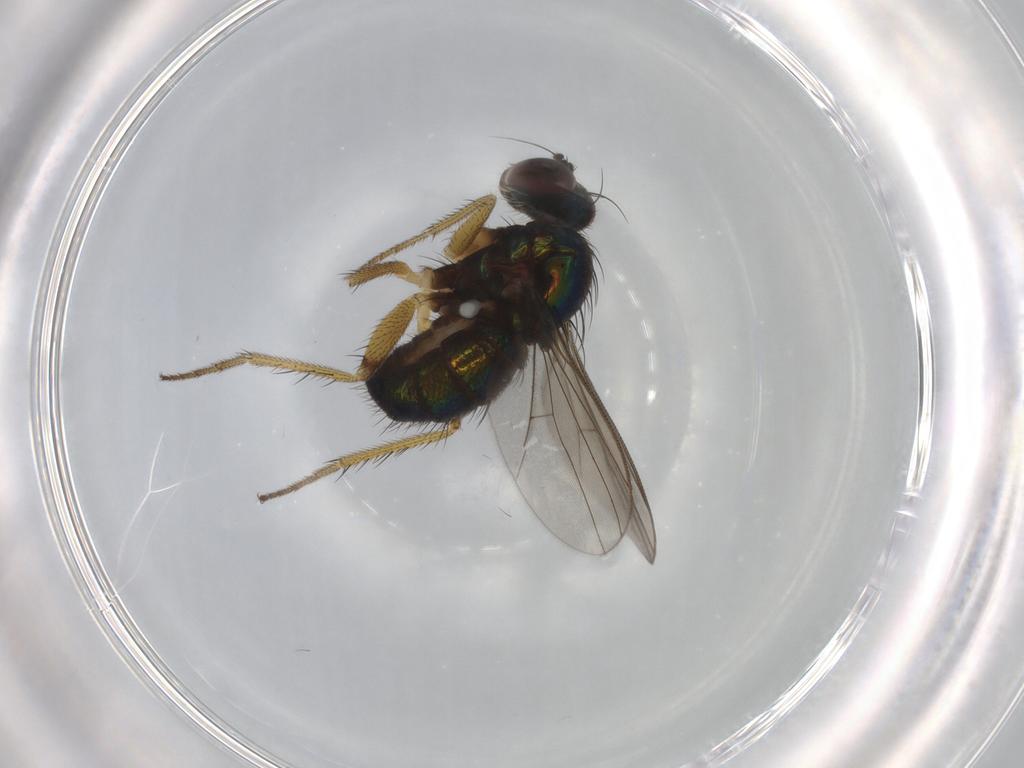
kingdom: Animalia
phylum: Arthropoda
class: Insecta
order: Diptera
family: Dolichopodidae
